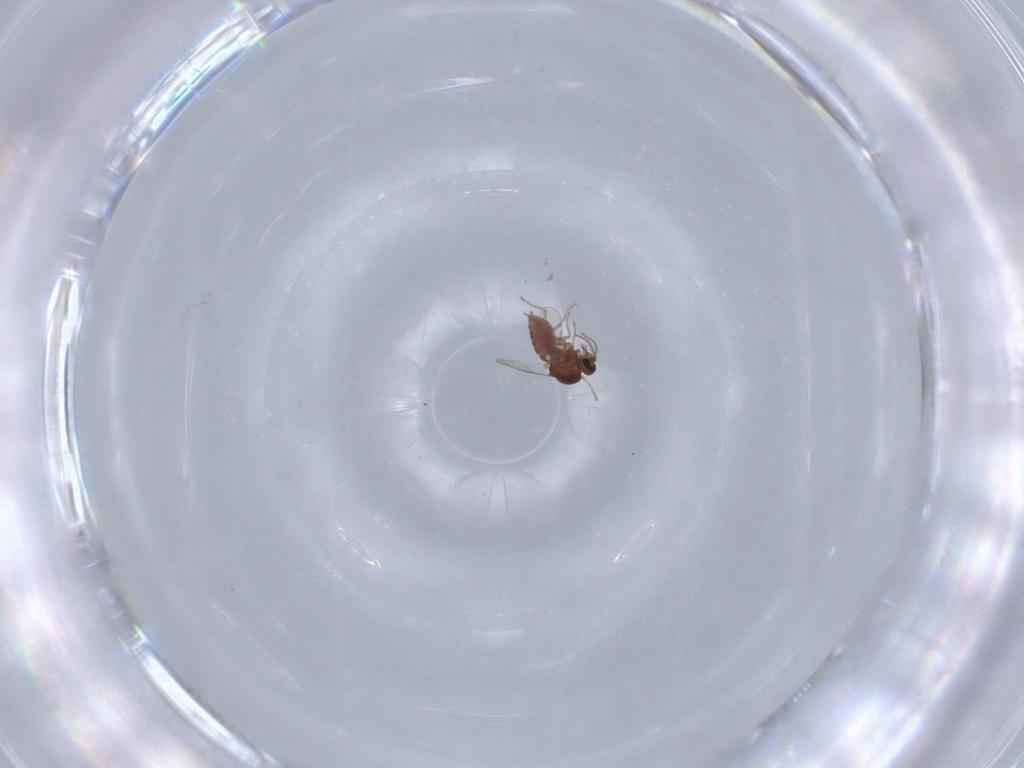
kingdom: Animalia
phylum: Arthropoda
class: Insecta
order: Diptera
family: Ceratopogonidae
